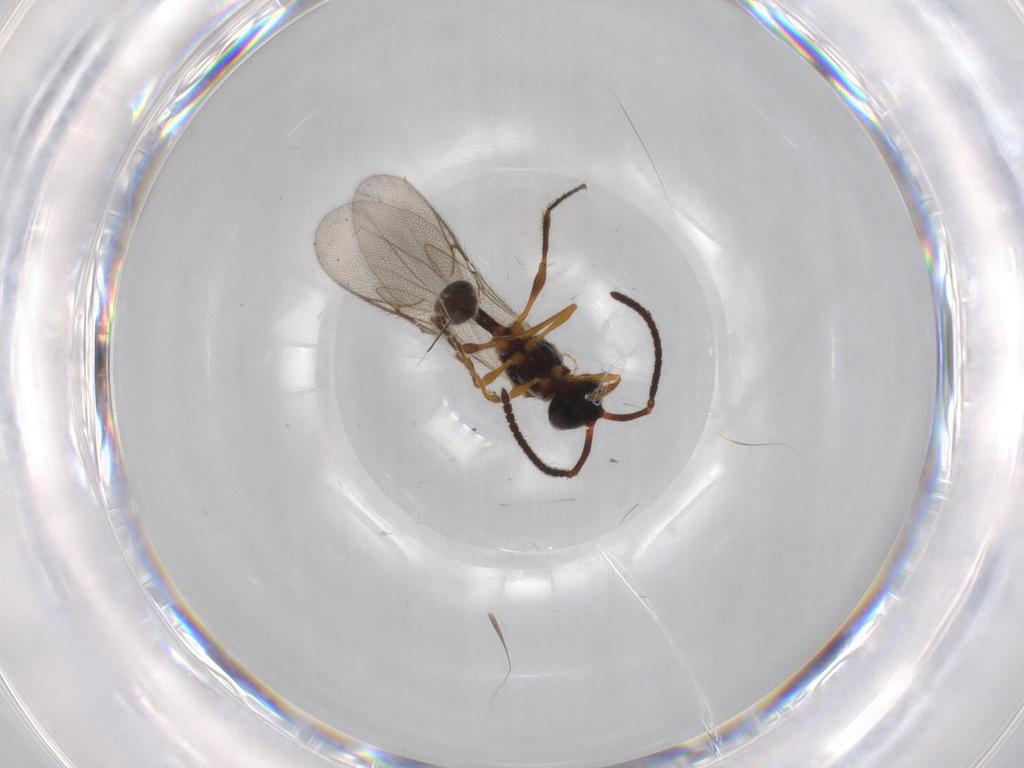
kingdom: Animalia
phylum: Arthropoda
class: Insecta
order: Hymenoptera
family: Diapriidae
